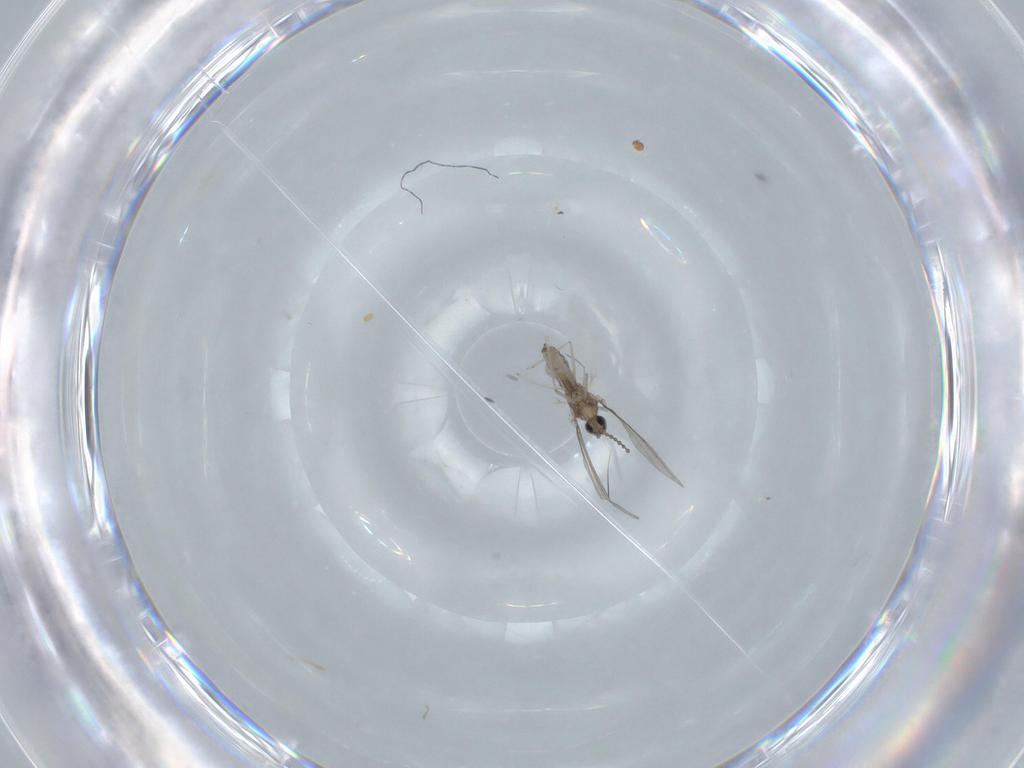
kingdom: Animalia
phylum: Arthropoda
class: Insecta
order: Diptera
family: Cecidomyiidae
